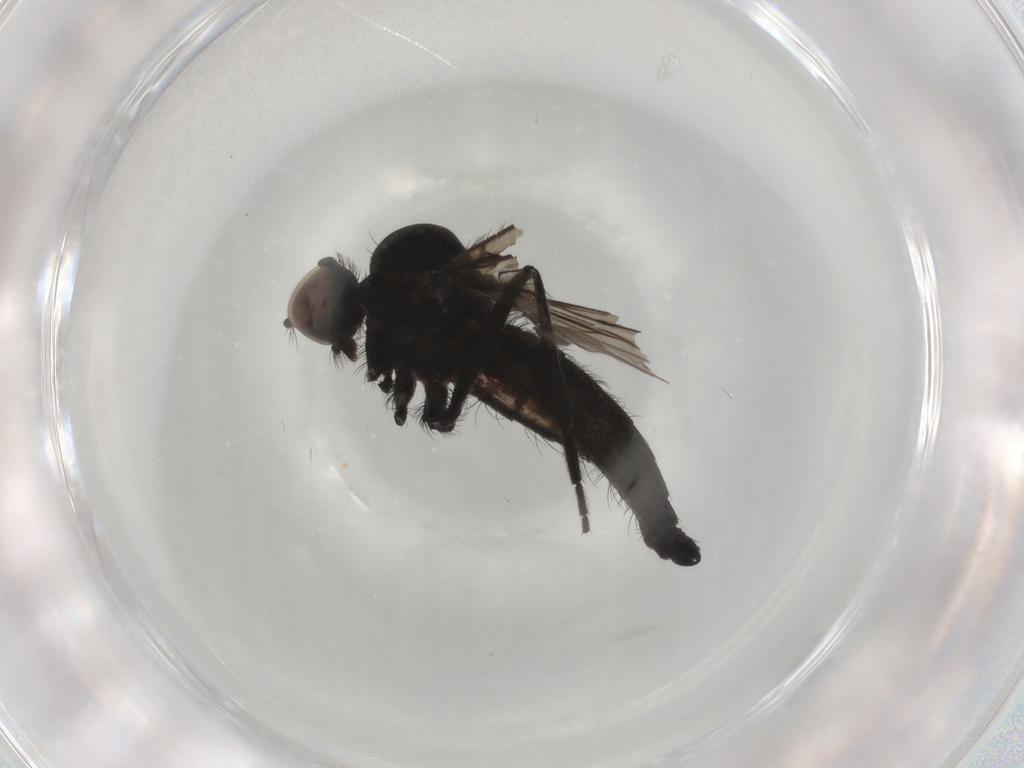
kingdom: Animalia
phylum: Arthropoda
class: Insecta
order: Diptera
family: Hybotidae
